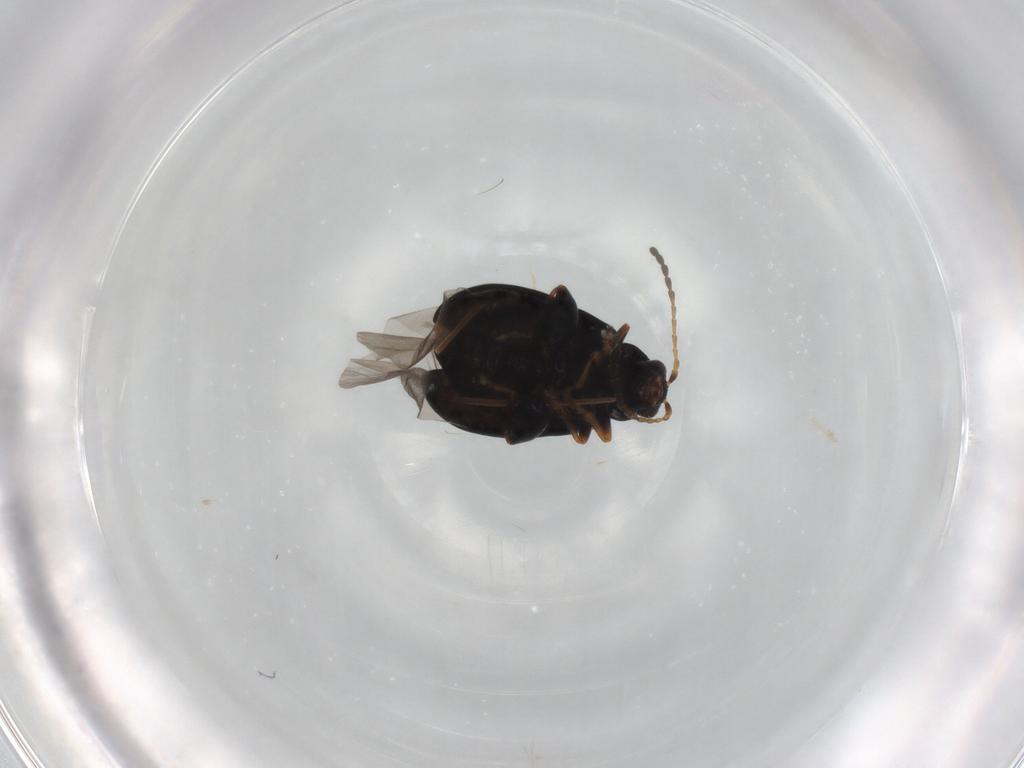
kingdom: Animalia
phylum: Arthropoda
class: Insecta
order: Coleoptera
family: Chrysomelidae
